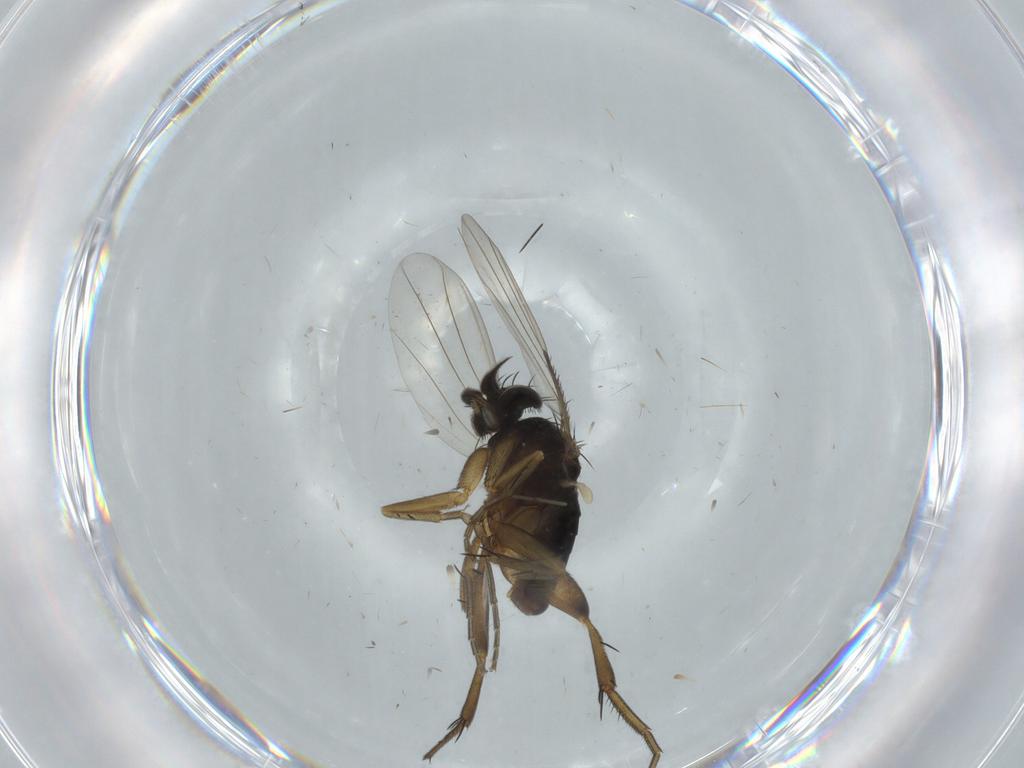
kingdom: Animalia
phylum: Arthropoda
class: Insecta
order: Diptera
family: Phoridae
